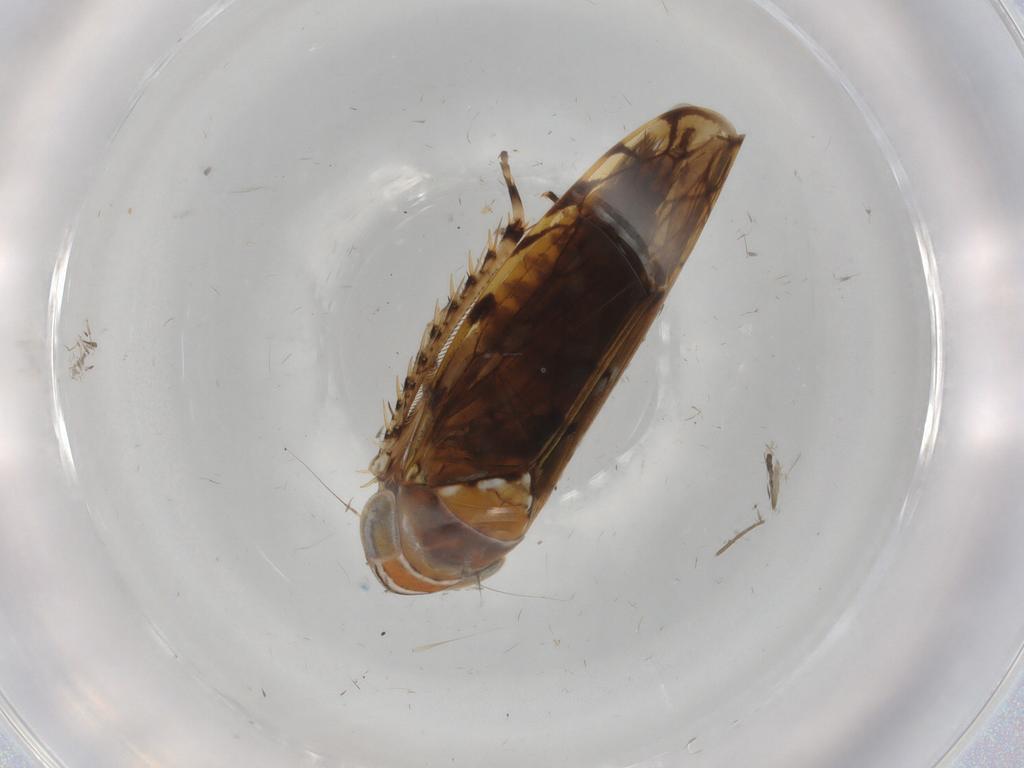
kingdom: Animalia
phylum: Arthropoda
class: Insecta
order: Hemiptera
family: Cicadellidae
